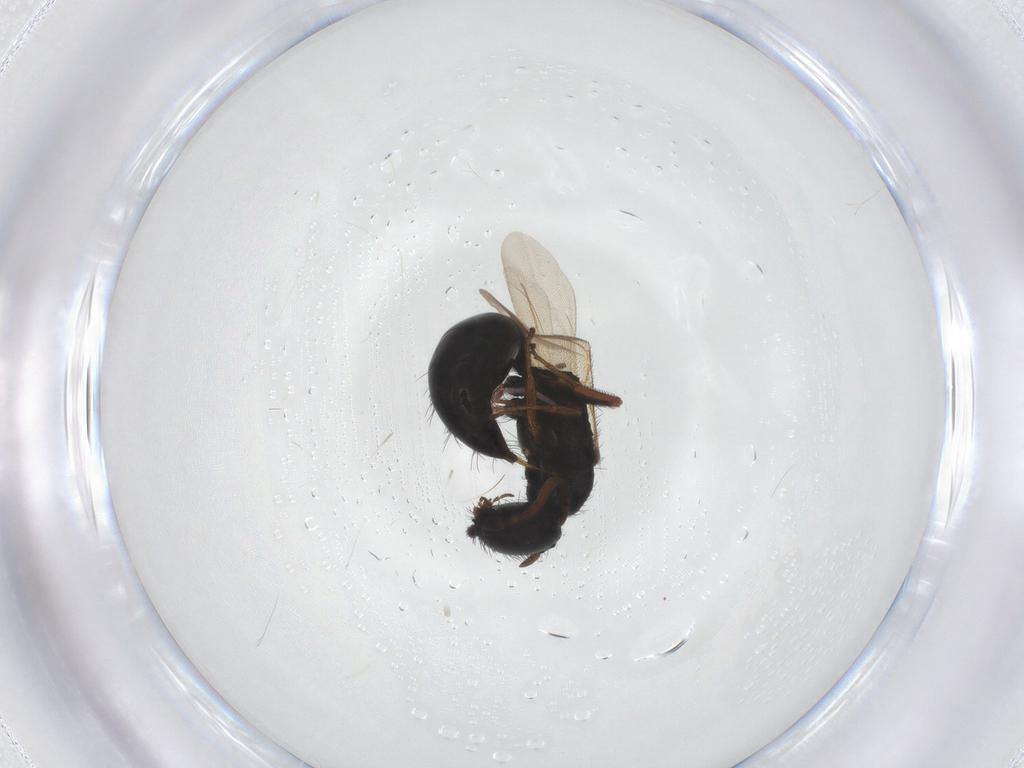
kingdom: Animalia
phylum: Arthropoda
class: Insecta
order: Hymenoptera
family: Bethylidae
